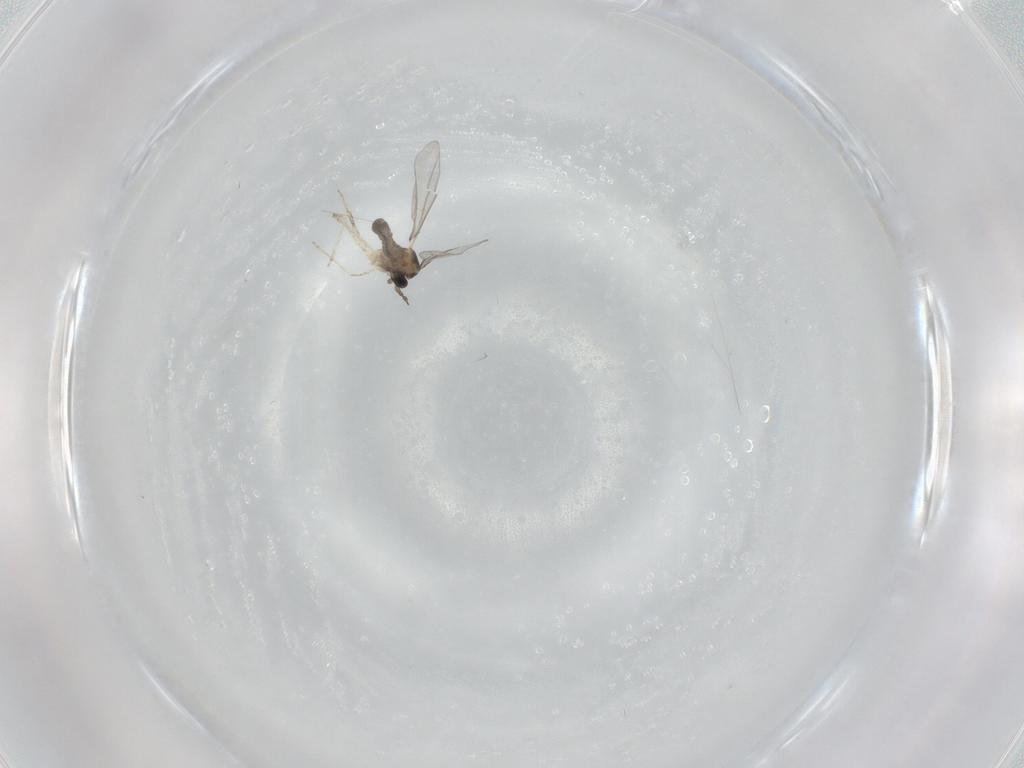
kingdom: Animalia
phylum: Arthropoda
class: Insecta
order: Diptera
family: Cecidomyiidae
